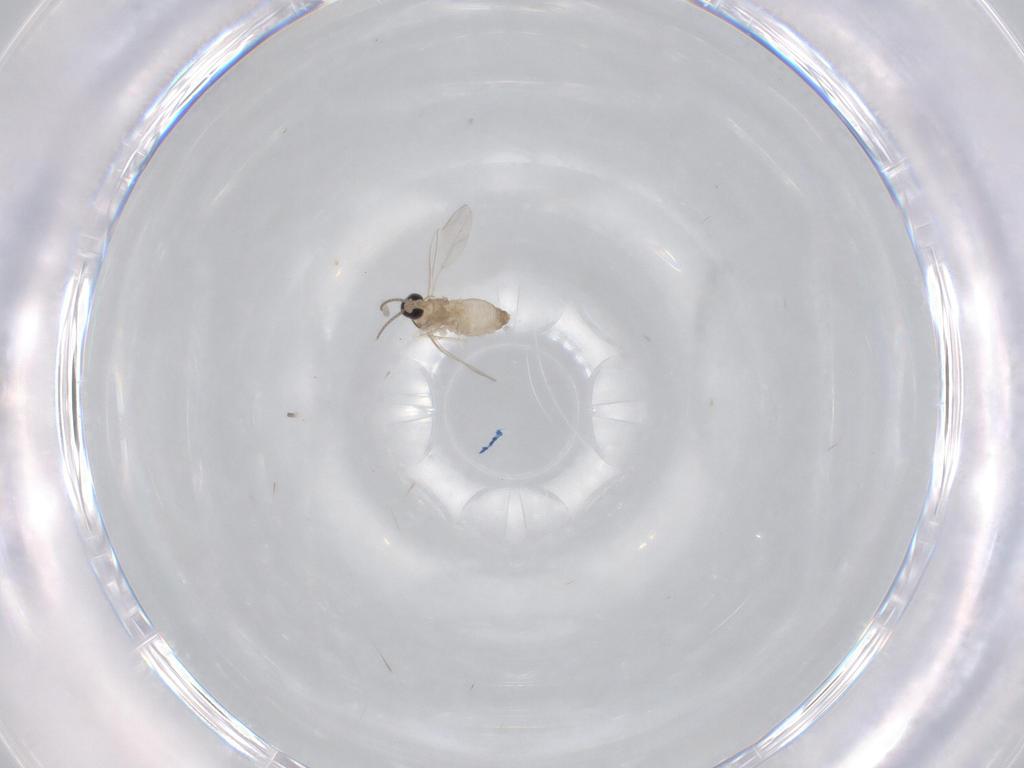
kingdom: Animalia
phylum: Arthropoda
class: Insecta
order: Diptera
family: Cecidomyiidae
